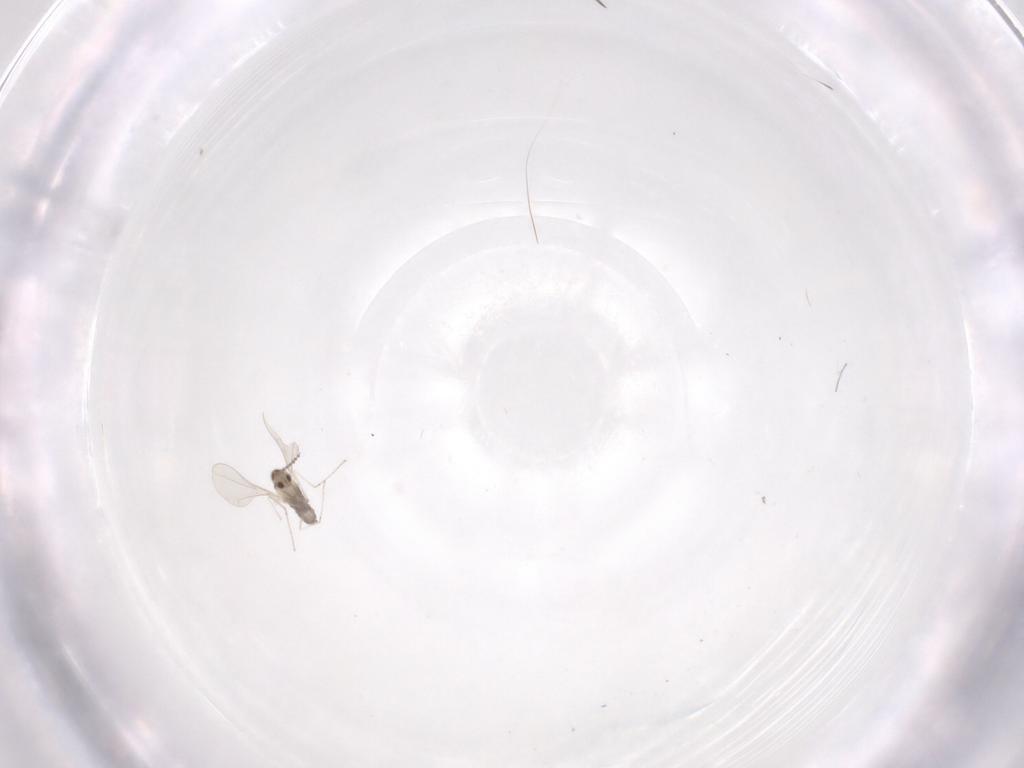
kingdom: Animalia
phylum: Arthropoda
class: Insecta
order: Diptera
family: Cecidomyiidae
